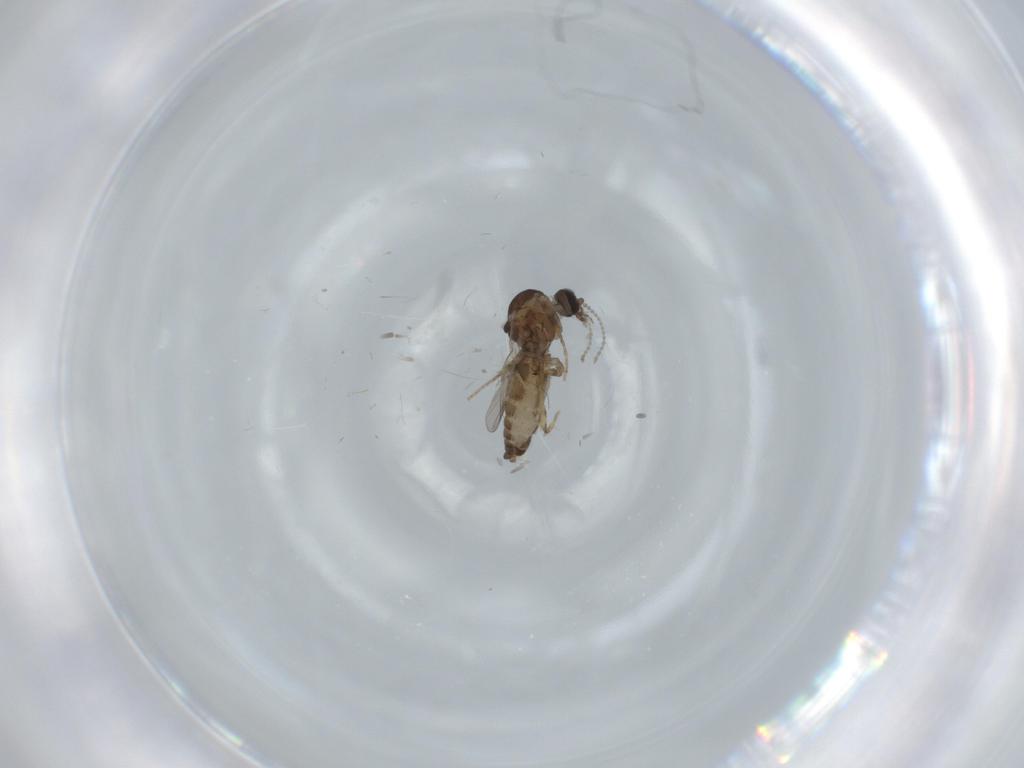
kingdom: Animalia
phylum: Arthropoda
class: Insecta
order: Diptera
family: Ceratopogonidae
